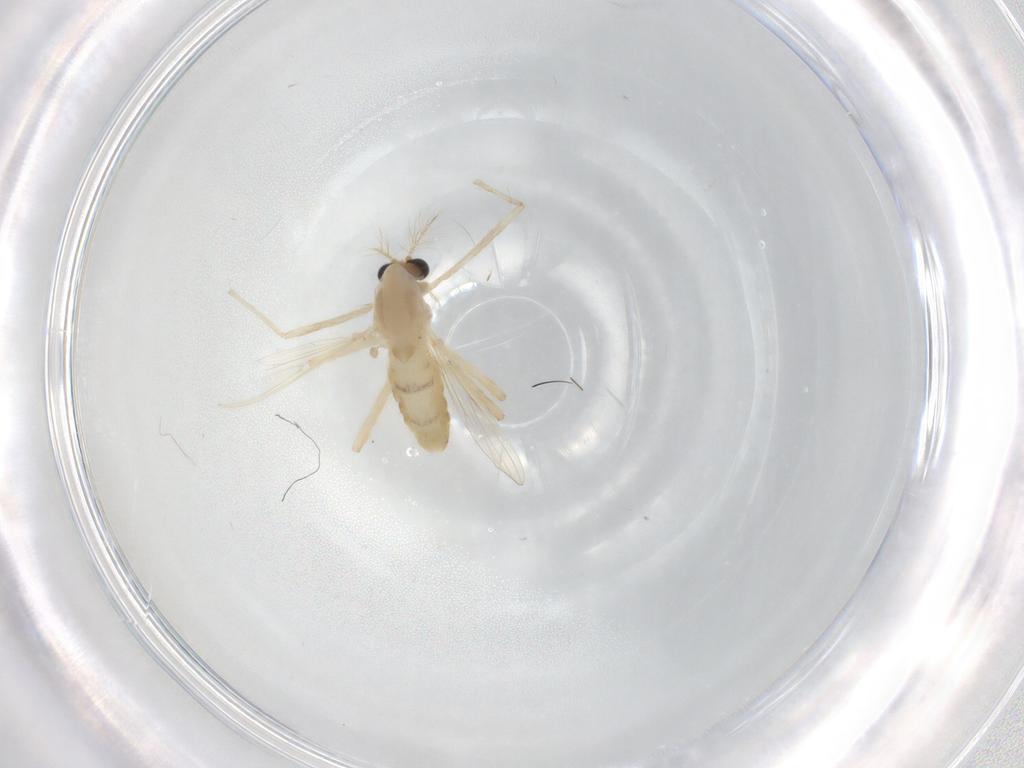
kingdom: Animalia
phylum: Arthropoda
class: Insecta
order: Diptera
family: Chironomidae
